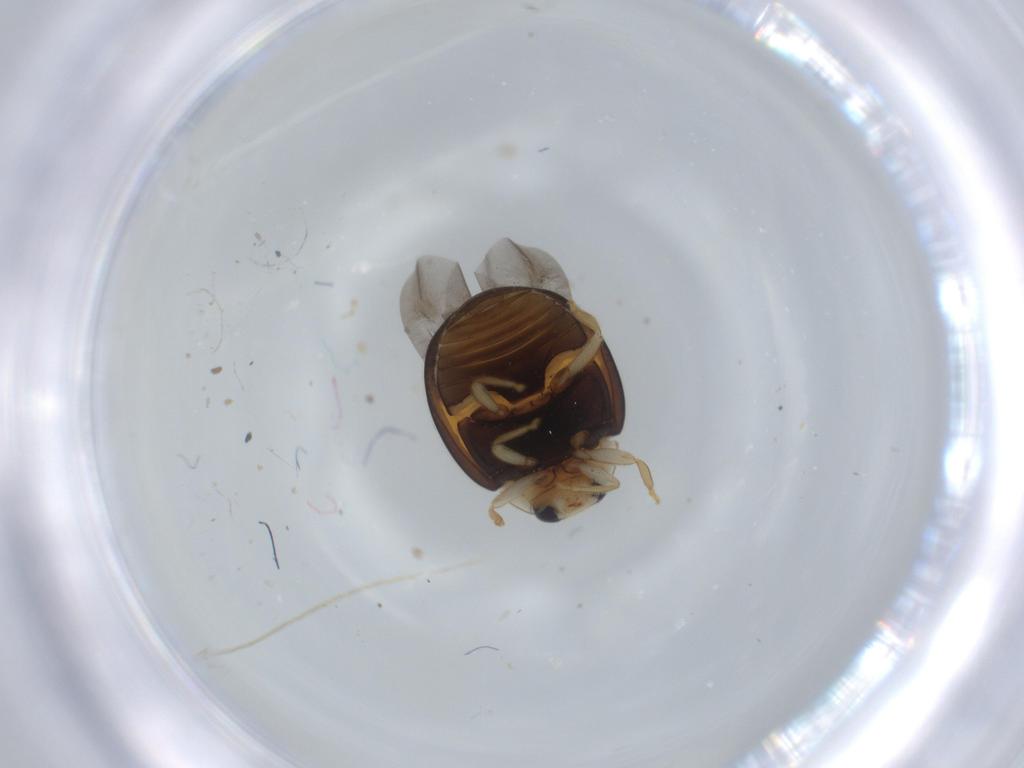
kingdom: Animalia
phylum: Arthropoda
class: Insecta
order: Coleoptera
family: Coccinellidae
